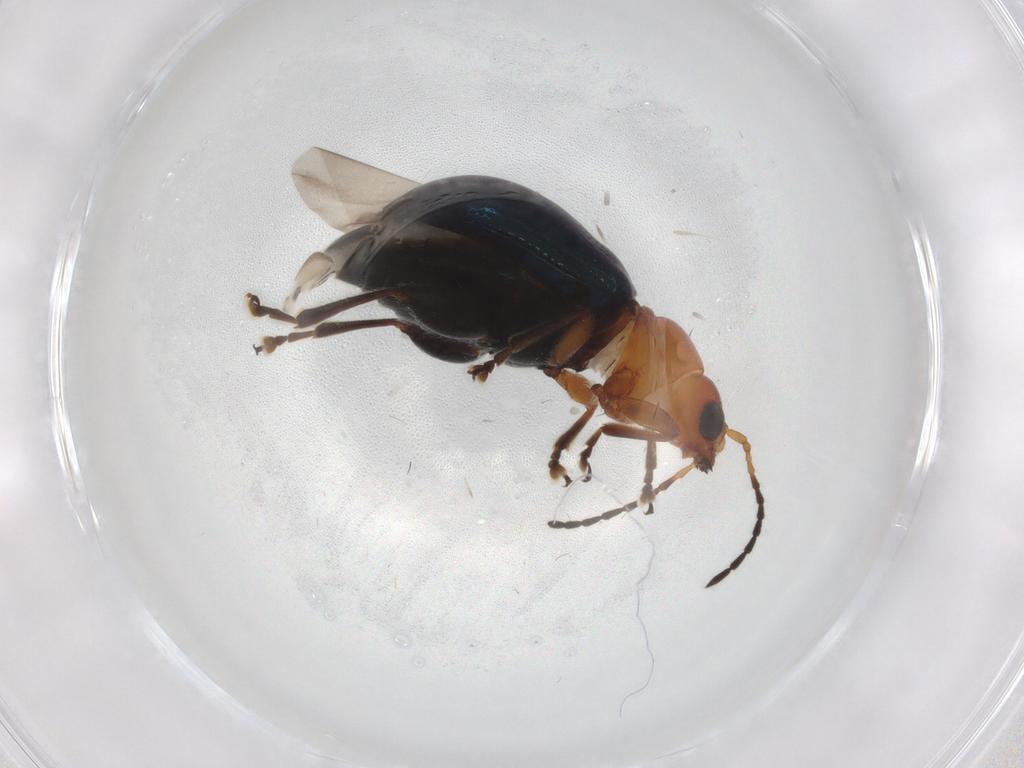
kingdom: Animalia
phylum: Arthropoda
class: Insecta
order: Coleoptera
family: Chrysomelidae
